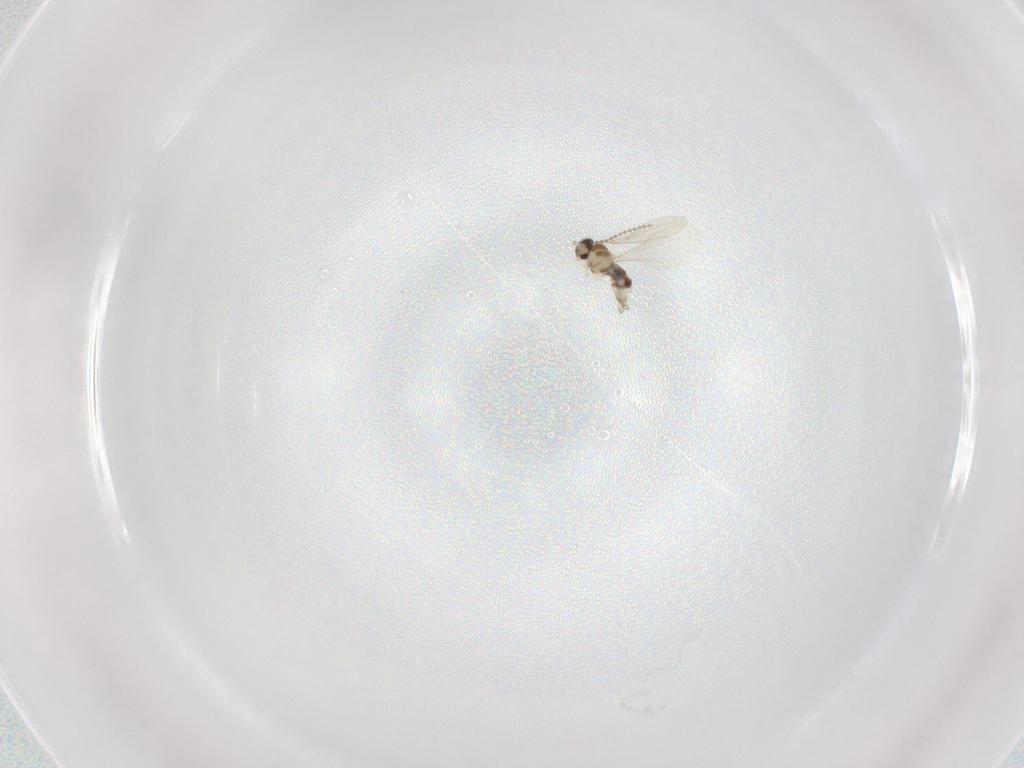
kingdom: Animalia
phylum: Arthropoda
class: Insecta
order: Diptera
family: Cecidomyiidae
